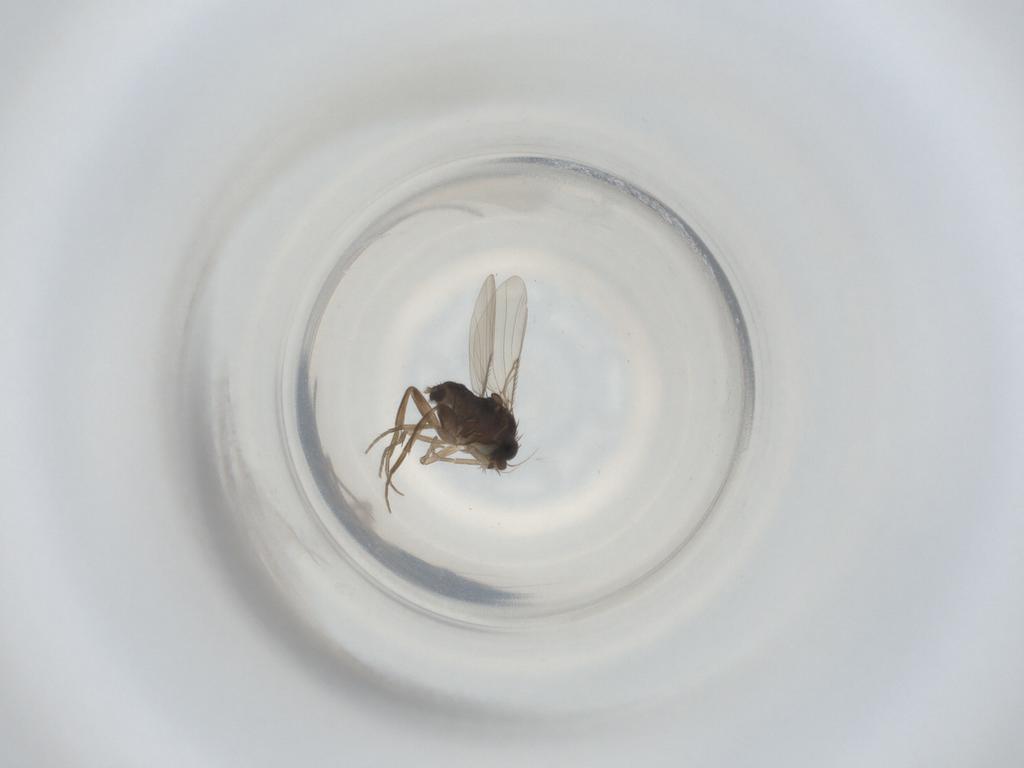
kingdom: Animalia
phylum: Arthropoda
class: Insecta
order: Diptera
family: Phoridae
